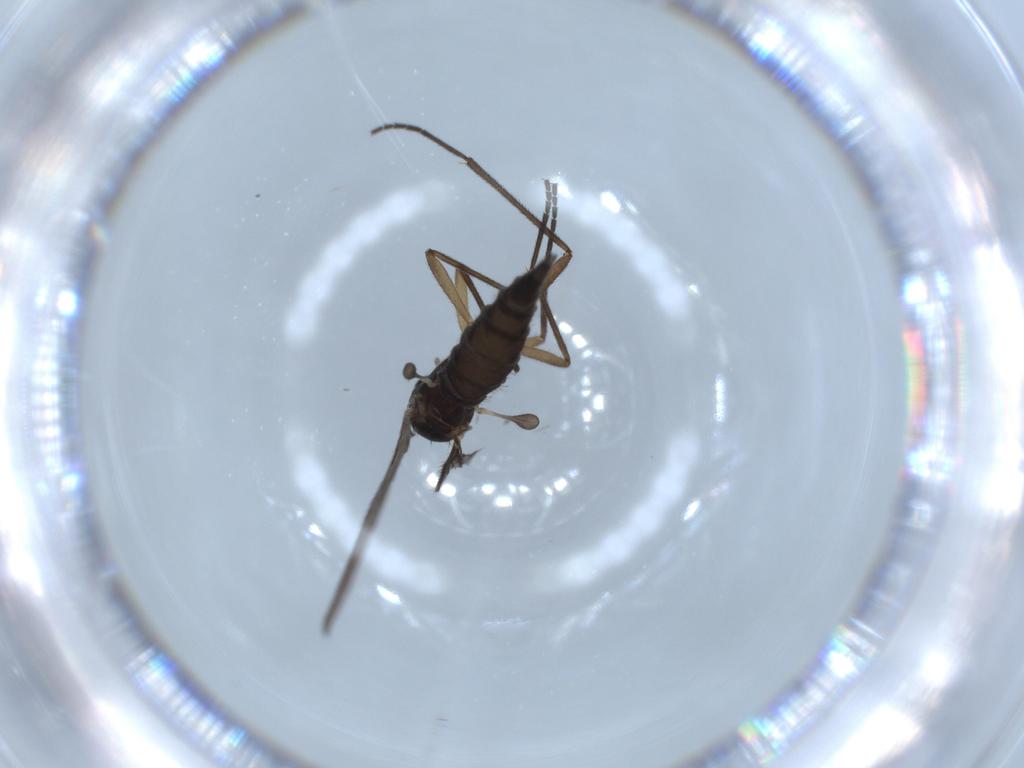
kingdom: Animalia
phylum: Arthropoda
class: Insecta
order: Diptera
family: Sciaridae
